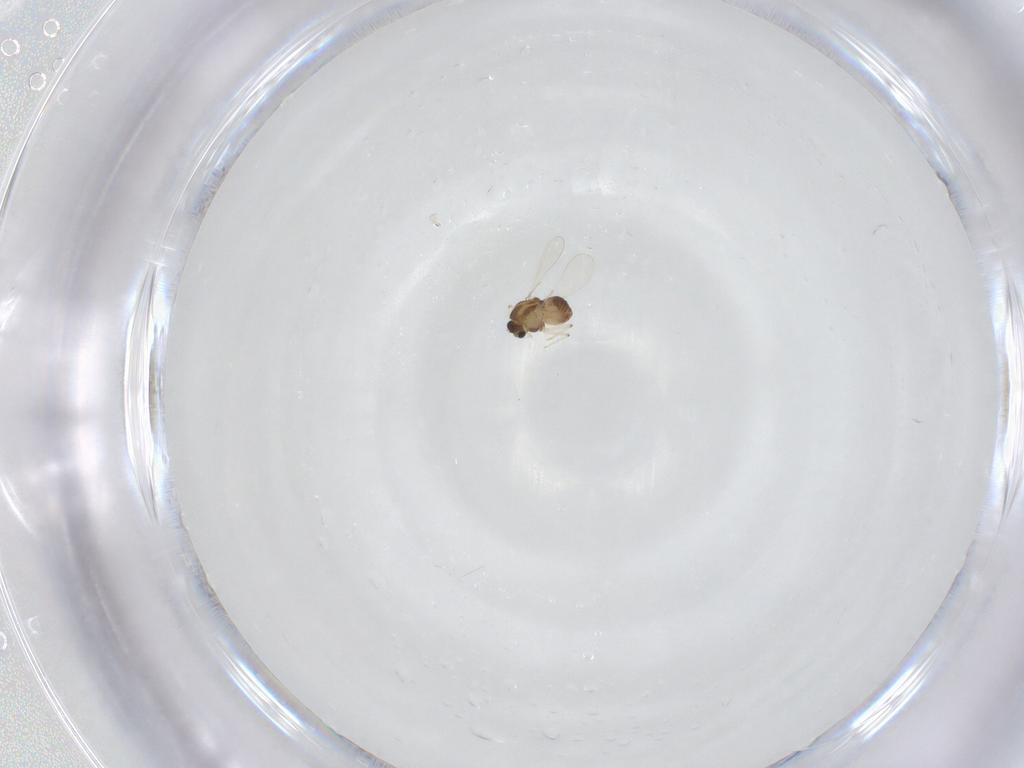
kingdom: Animalia
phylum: Arthropoda
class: Insecta
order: Diptera
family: Chironomidae
